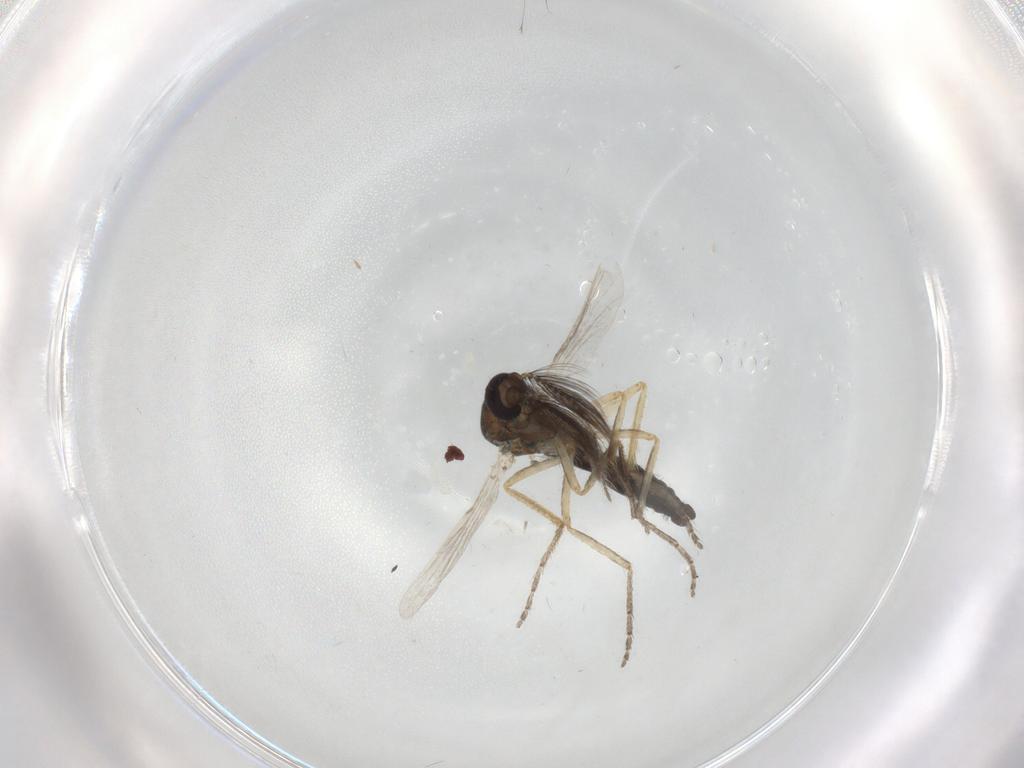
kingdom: Animalia
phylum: Arthropoda
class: Insecta
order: Diptera
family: Ceratopogonidae
